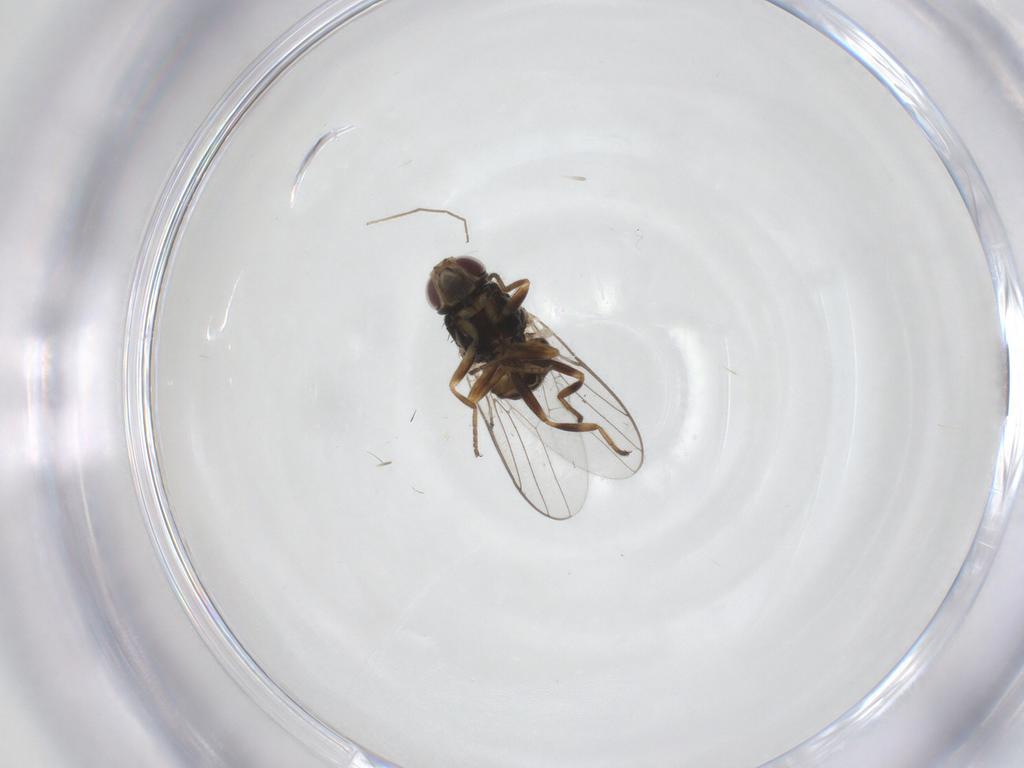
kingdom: Animalia
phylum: Arthropoda
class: Insecta
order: Diptera
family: Chloropidae
